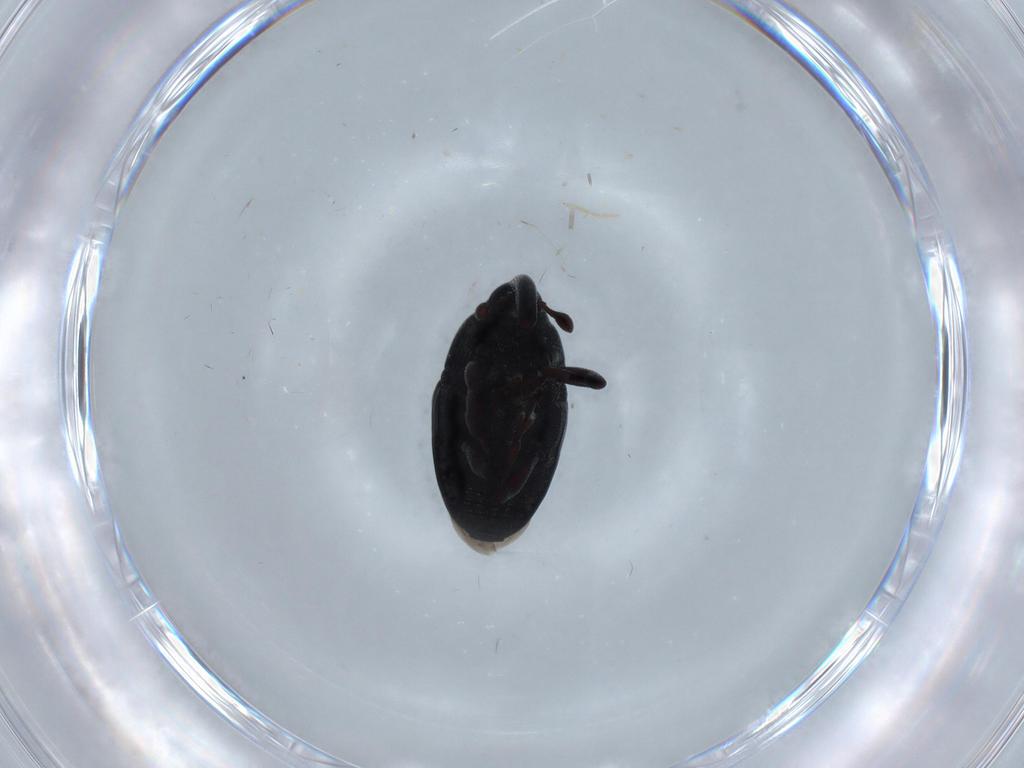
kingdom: Animalia
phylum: Arthropoda
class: Insecta
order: Coleoptera
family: Curculionidae
